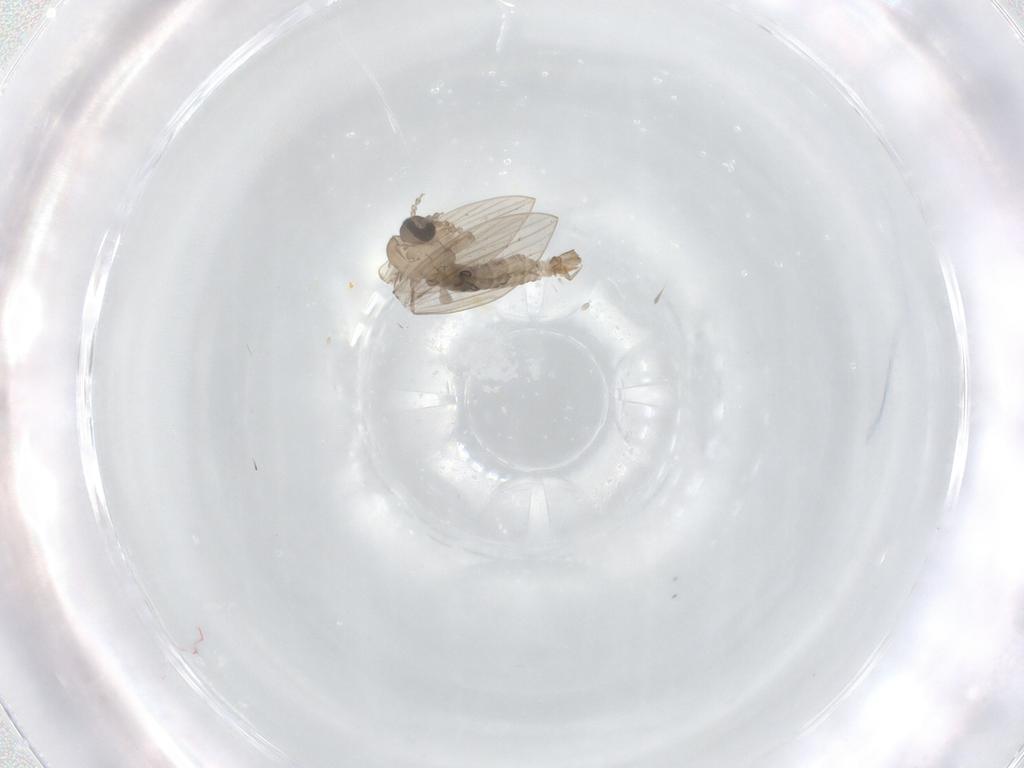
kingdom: Animalia
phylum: Arthropoda
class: Insecta
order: Diptera
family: Psychodidae
